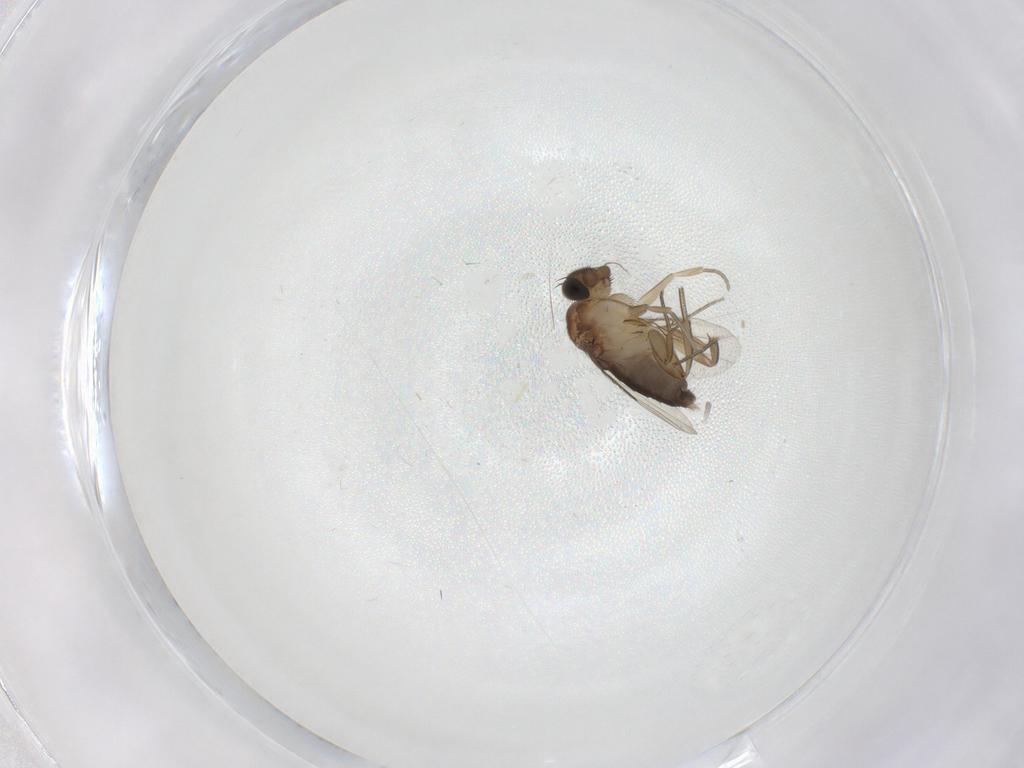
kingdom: Animalia
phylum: Arthropoda
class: Insecta
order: Diptera
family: Phoridae
